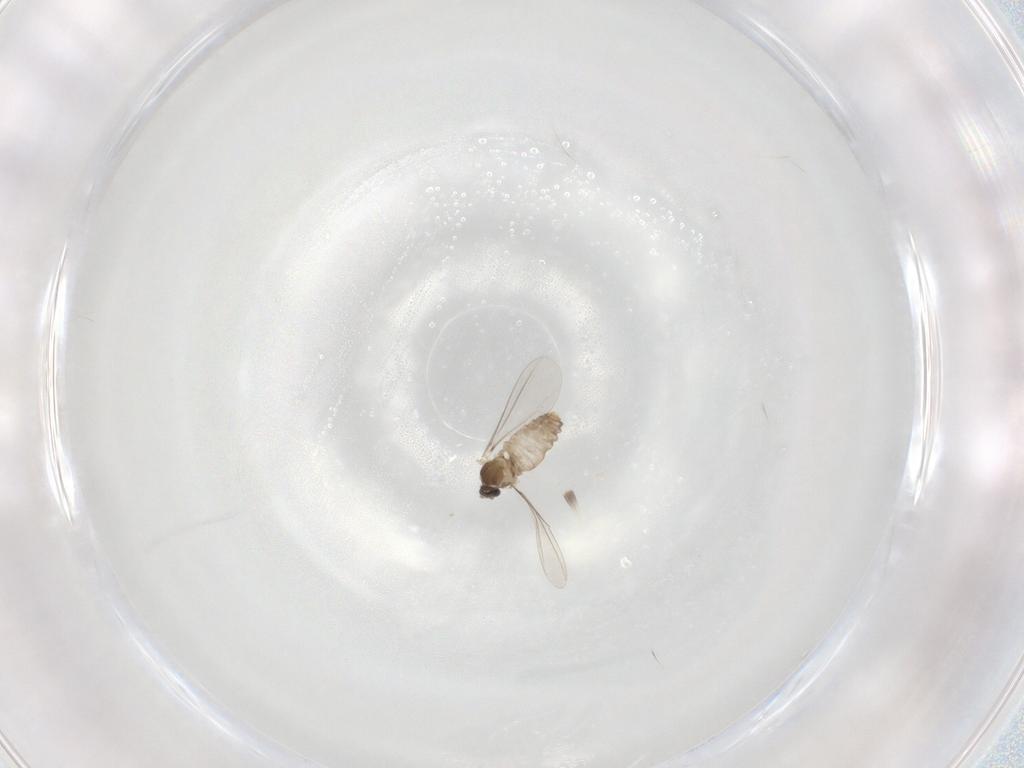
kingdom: Animalia
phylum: Arthropoda
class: Insecta
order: Diptera
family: Cecidomyiidae
